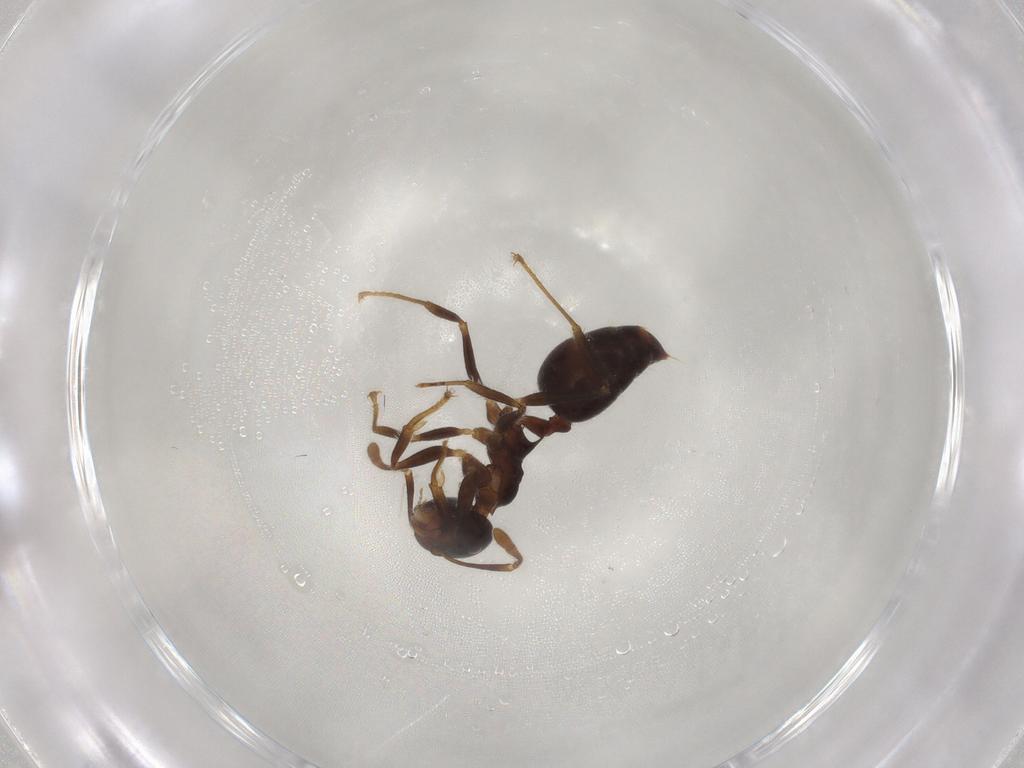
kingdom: Animalia
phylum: Arthropoda
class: Insecta
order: Hymenoptera
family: Formicidae
